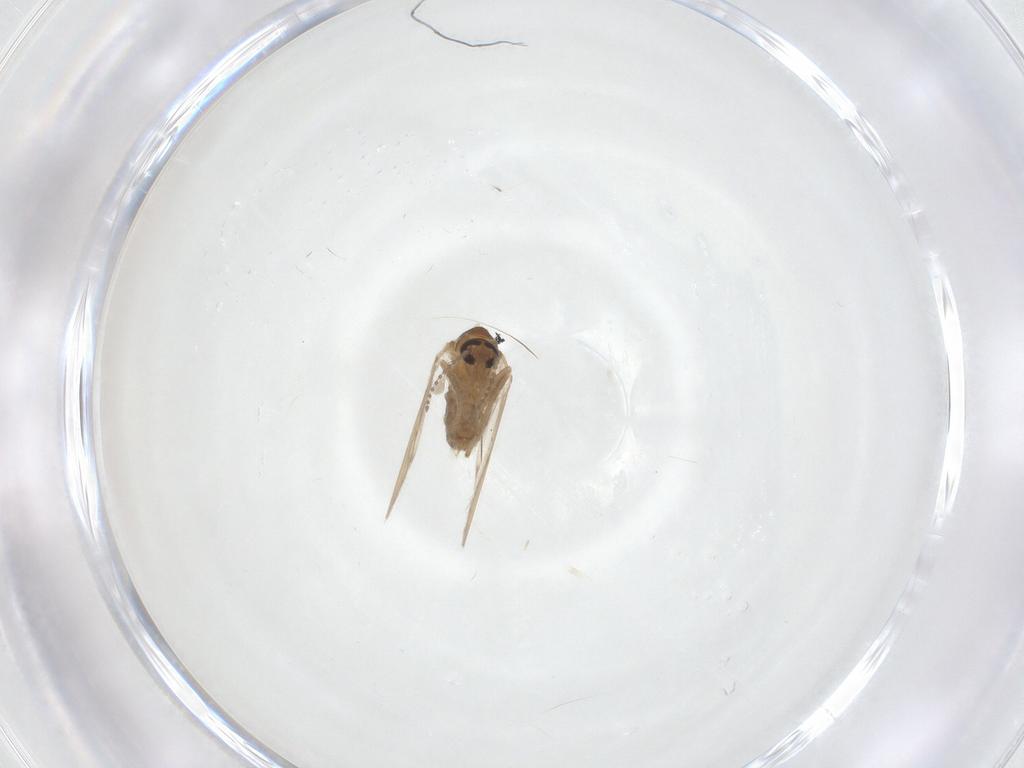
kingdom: Animalia
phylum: Arthropoda
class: Insecta
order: Diptera
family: Psychodidae
